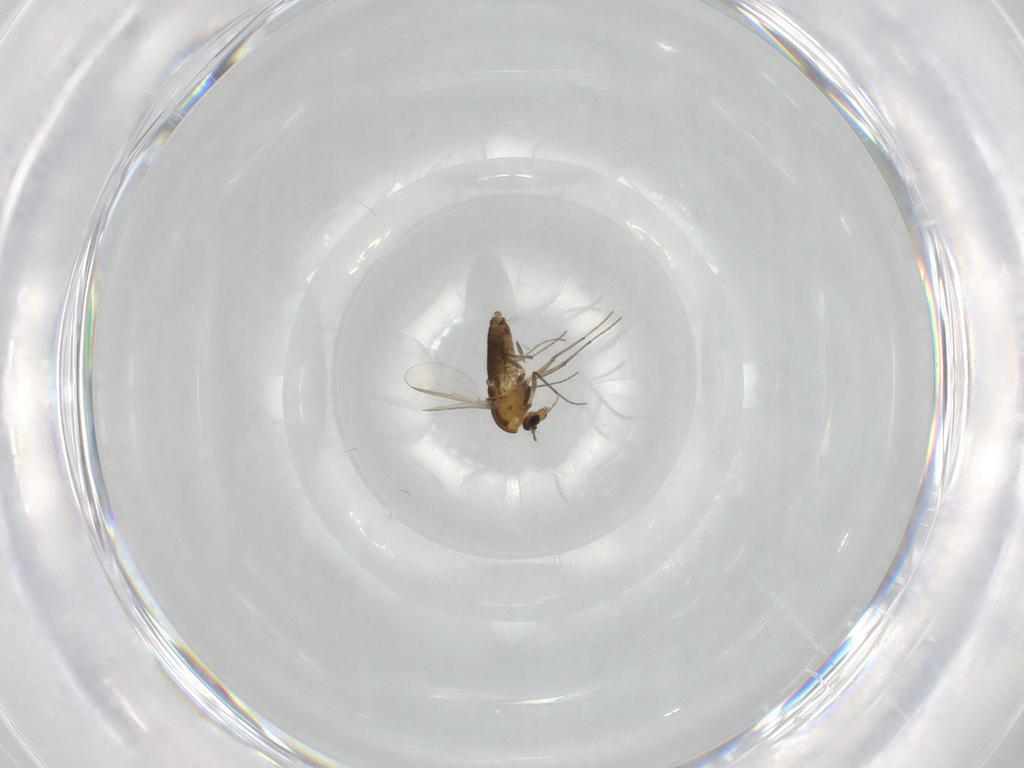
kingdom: Animalia
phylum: Arthropoda
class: Insecta
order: Diptera
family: Chironomidae
